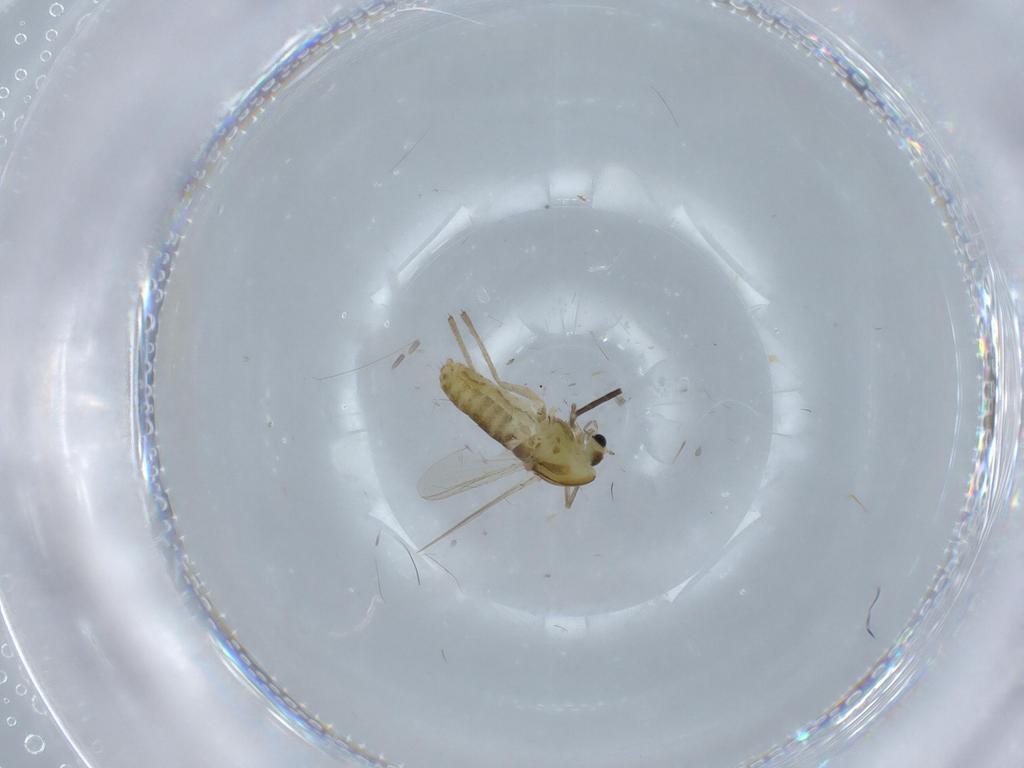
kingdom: Animalia
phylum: Arthropoda
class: Insecta
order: Diptera
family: Chironomidae
